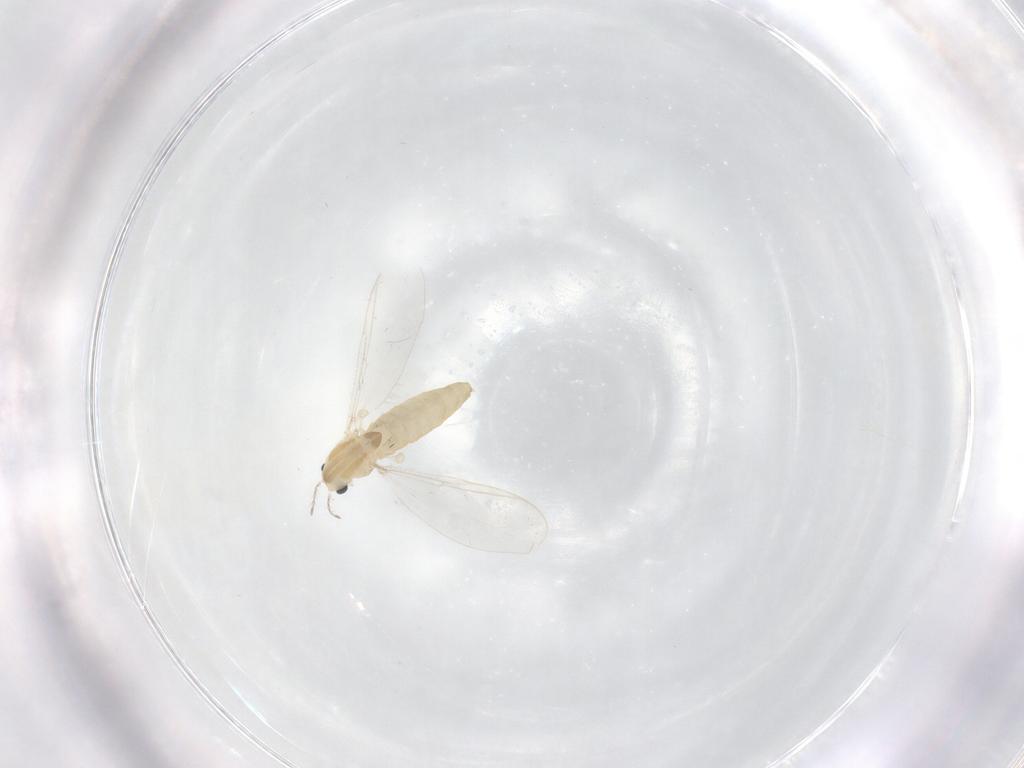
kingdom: Animalia
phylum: Arthropoda
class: Insecta
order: Diptera
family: Chironomidae
